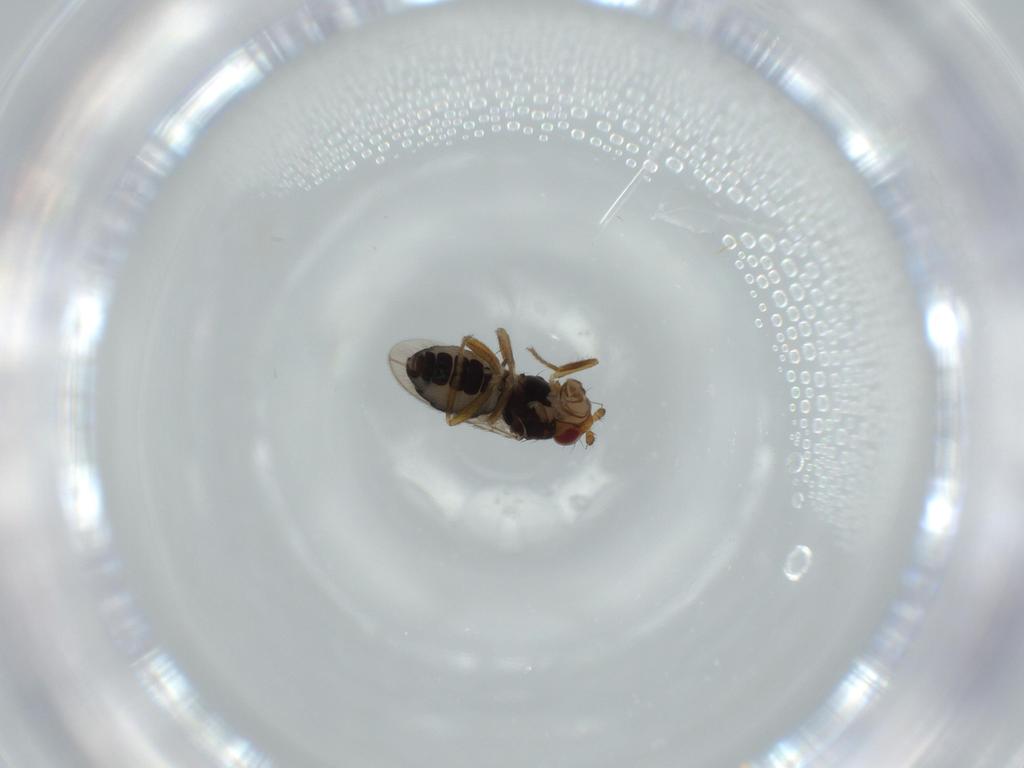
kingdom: Animalia
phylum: Arthropoda
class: Insecta
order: Diptera
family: Sphaeroceridae
